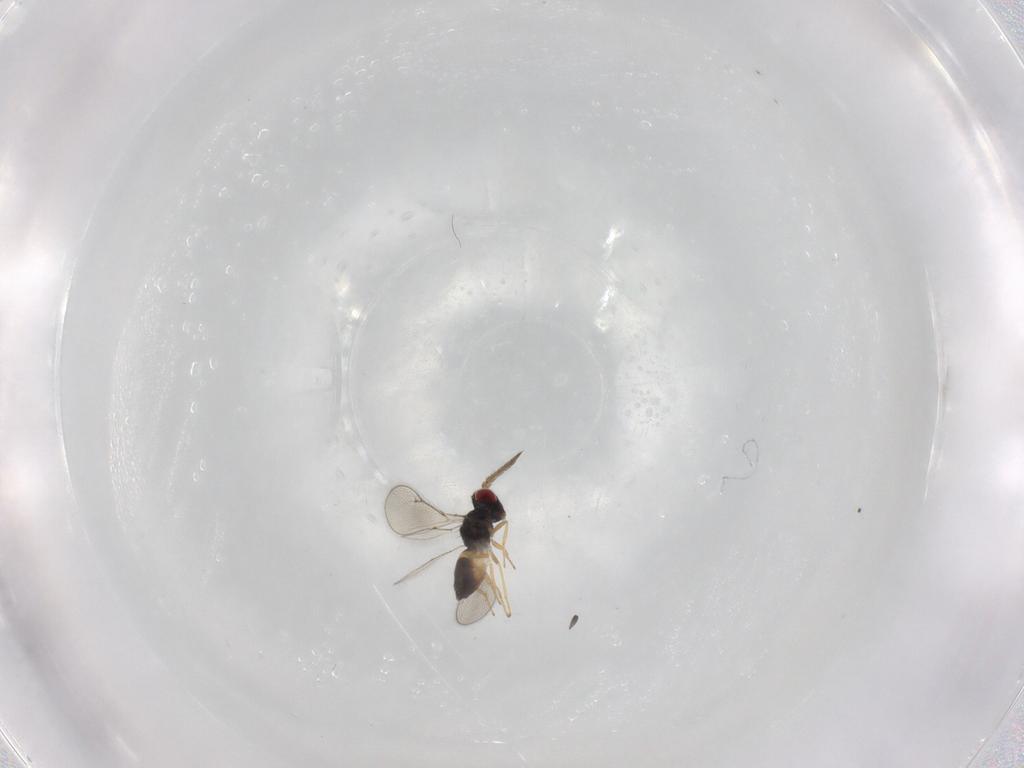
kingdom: Animalia
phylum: Arthropoda
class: Insecta
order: Hymenoptera
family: Eulophidae
